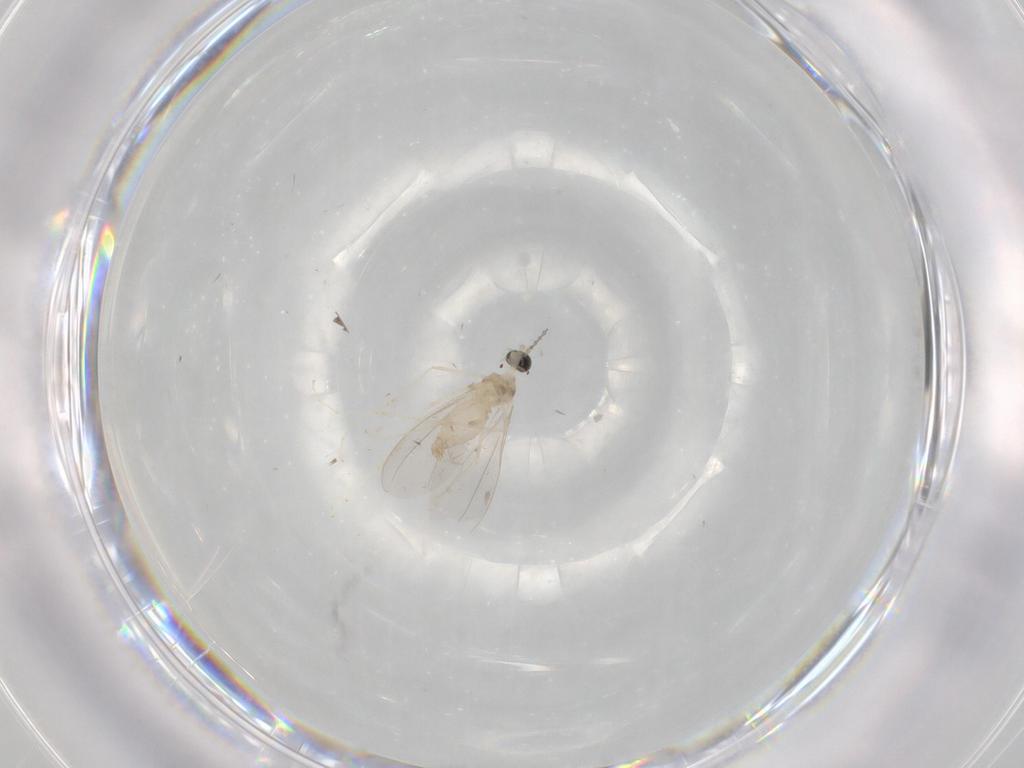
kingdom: Animalia
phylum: Arthropoda
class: Insecta
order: Diptera
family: Cecidomyiidae
